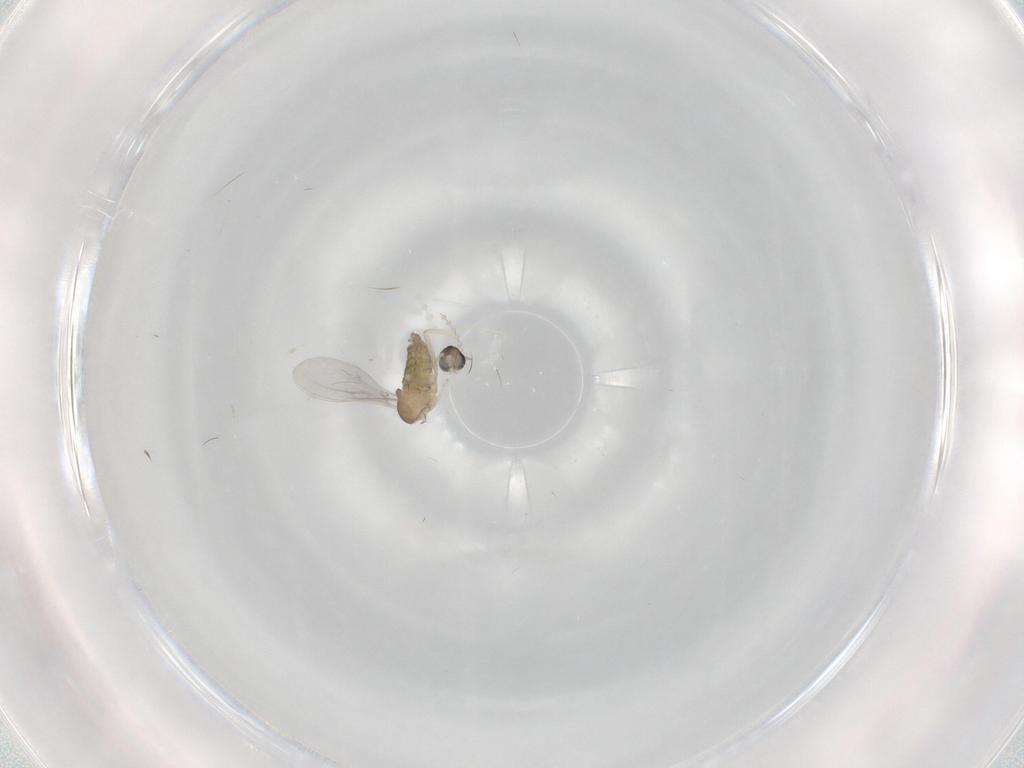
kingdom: Animalia
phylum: Arthropoda
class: Insecta
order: Diptera
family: Cecidomyiidae
